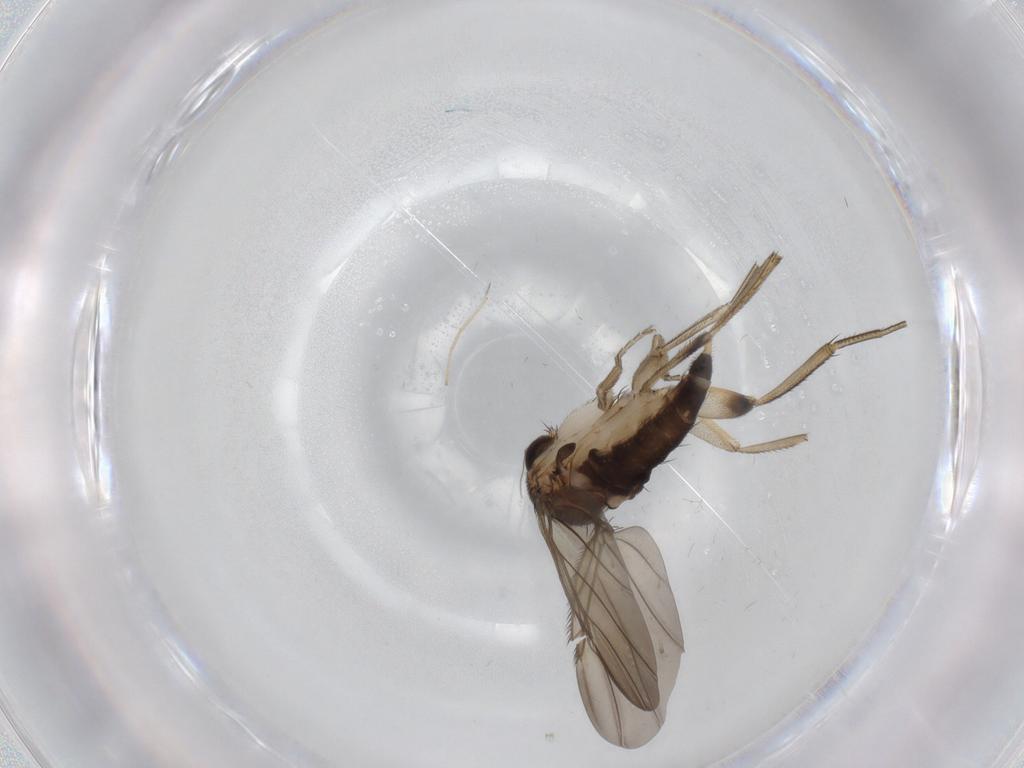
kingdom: Animalia
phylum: Arthropoda
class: Insecta
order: Diptera
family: Phoridae
